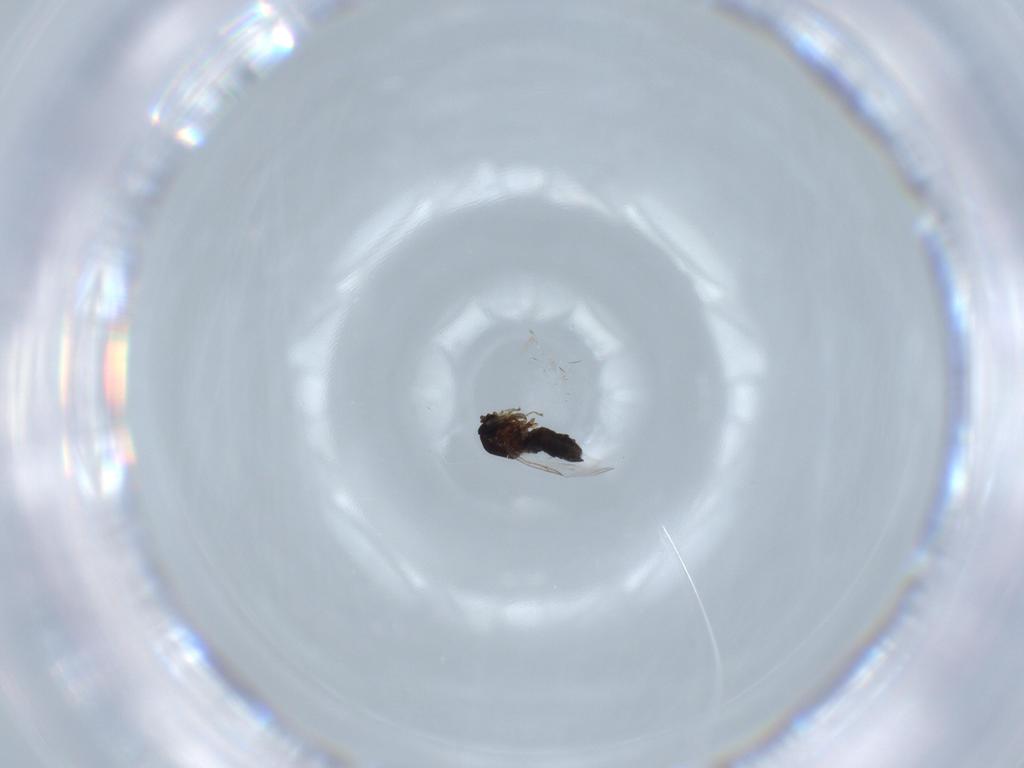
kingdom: Animalia
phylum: Arthropoda
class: Insecta
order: Diptera
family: Scatopsidae
